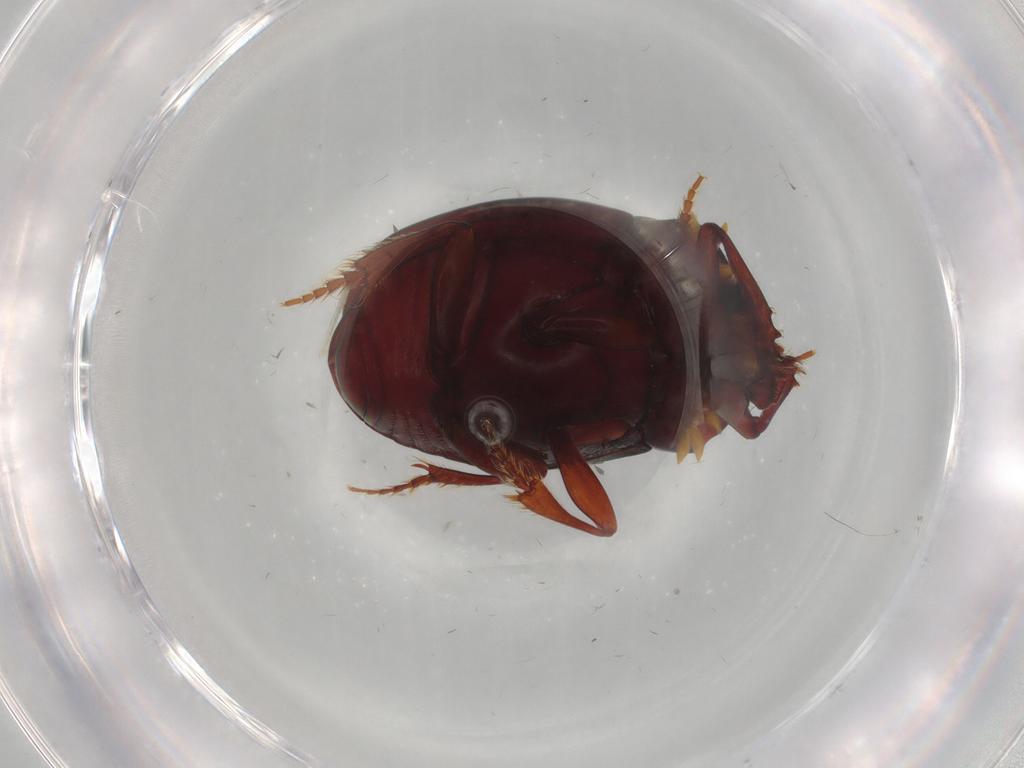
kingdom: Animalia
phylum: Arthropoda
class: Insecta
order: Coleoptera
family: Scarabaeidae
